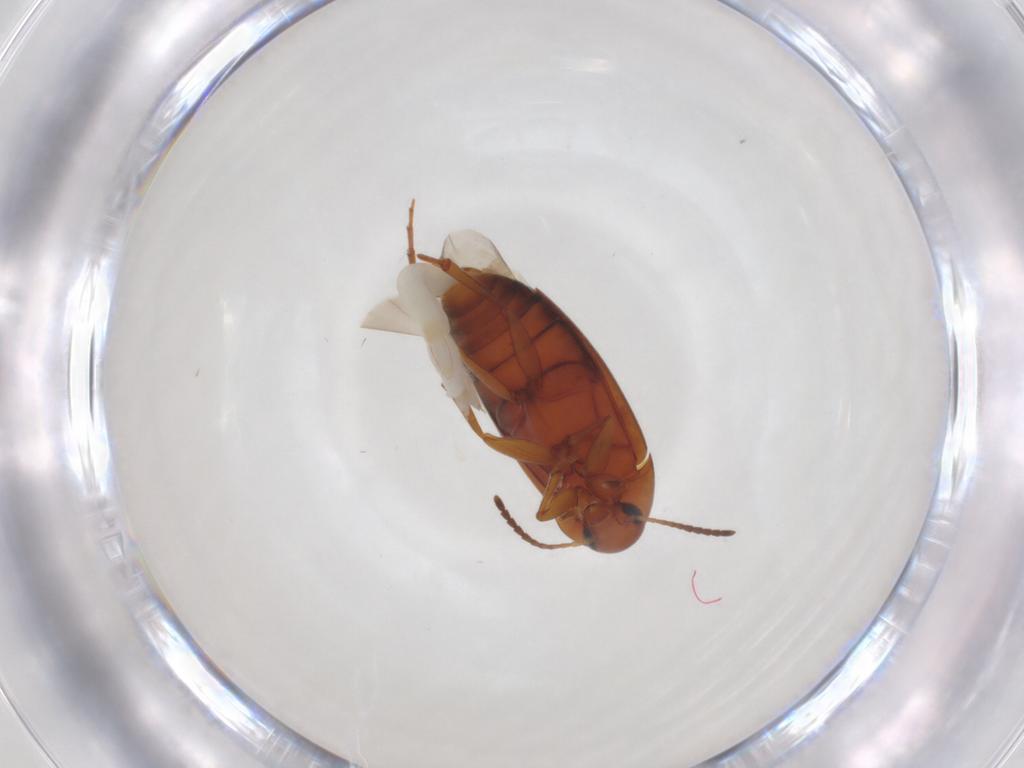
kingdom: Animalia
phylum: Arthropoda
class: Insecta
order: Coleoptera
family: Scraptiidae
